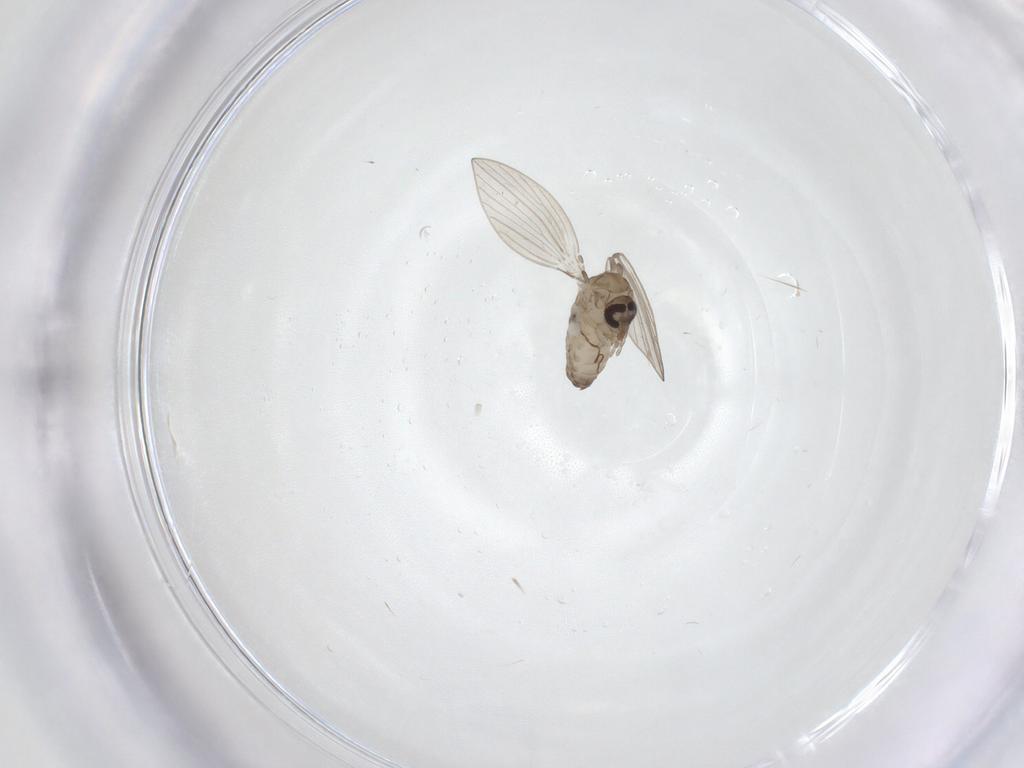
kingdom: Animalia
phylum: Arthropoda
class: Insecta
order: Diptera
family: Psychodidae
